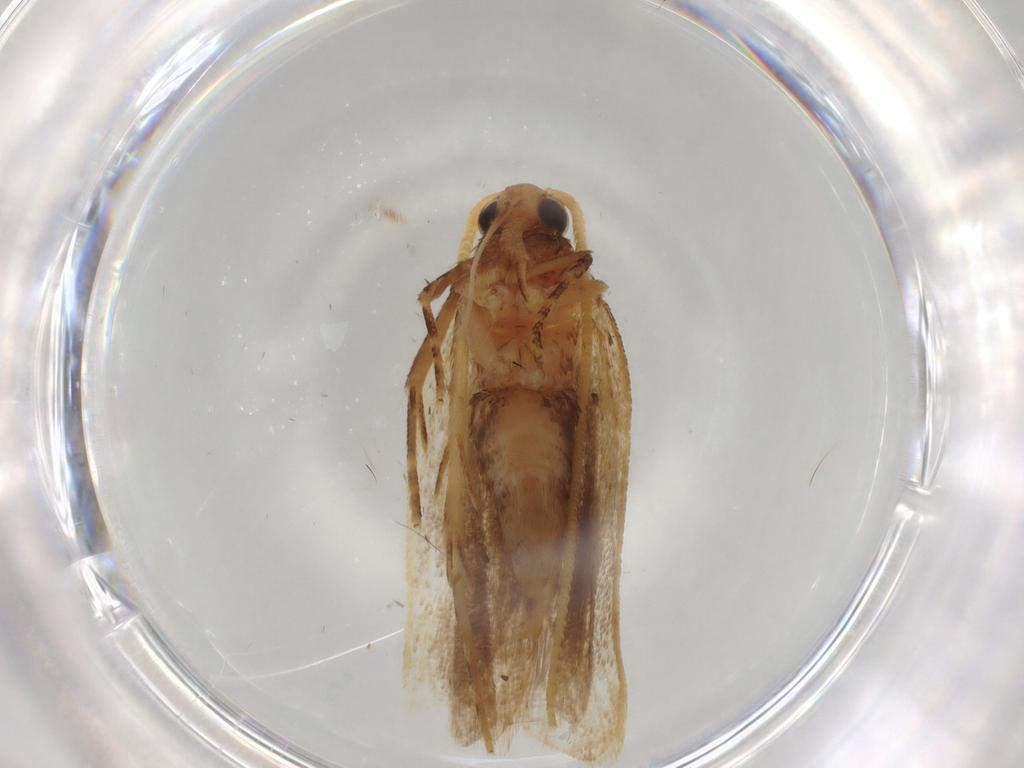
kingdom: Animalia
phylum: Arthropoda
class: Insecta
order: Lepidoptera
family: Lecithoceridae
